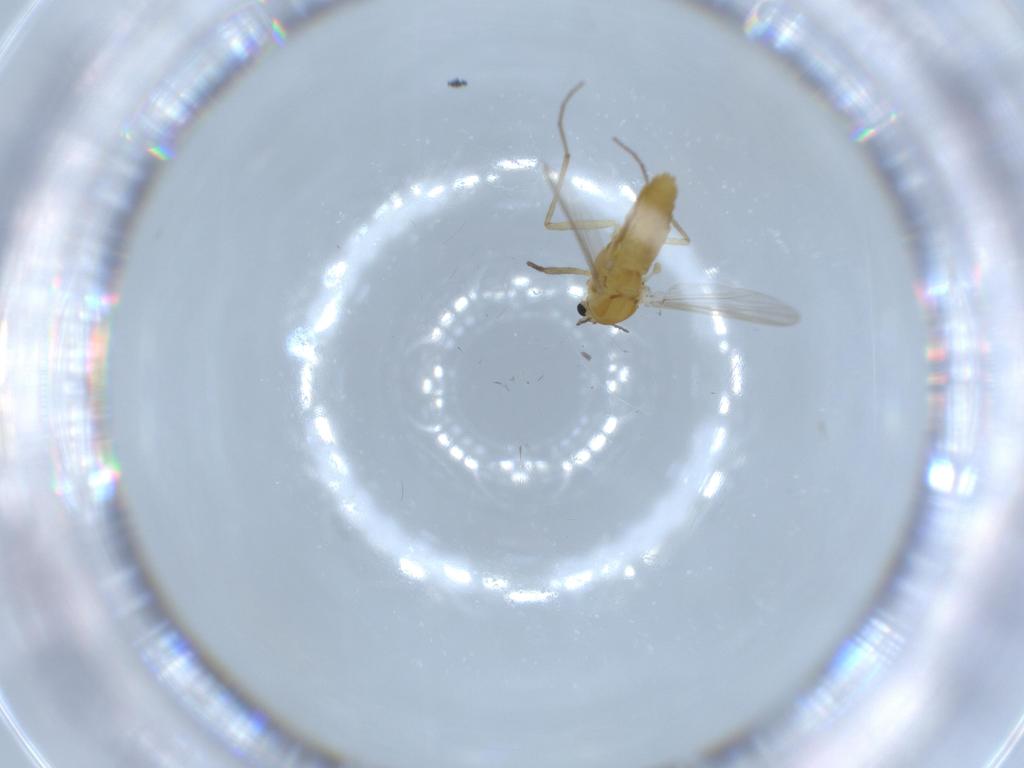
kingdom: Animalia
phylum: Arthropoda
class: Insecta
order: Diptera
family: Chironomidae
